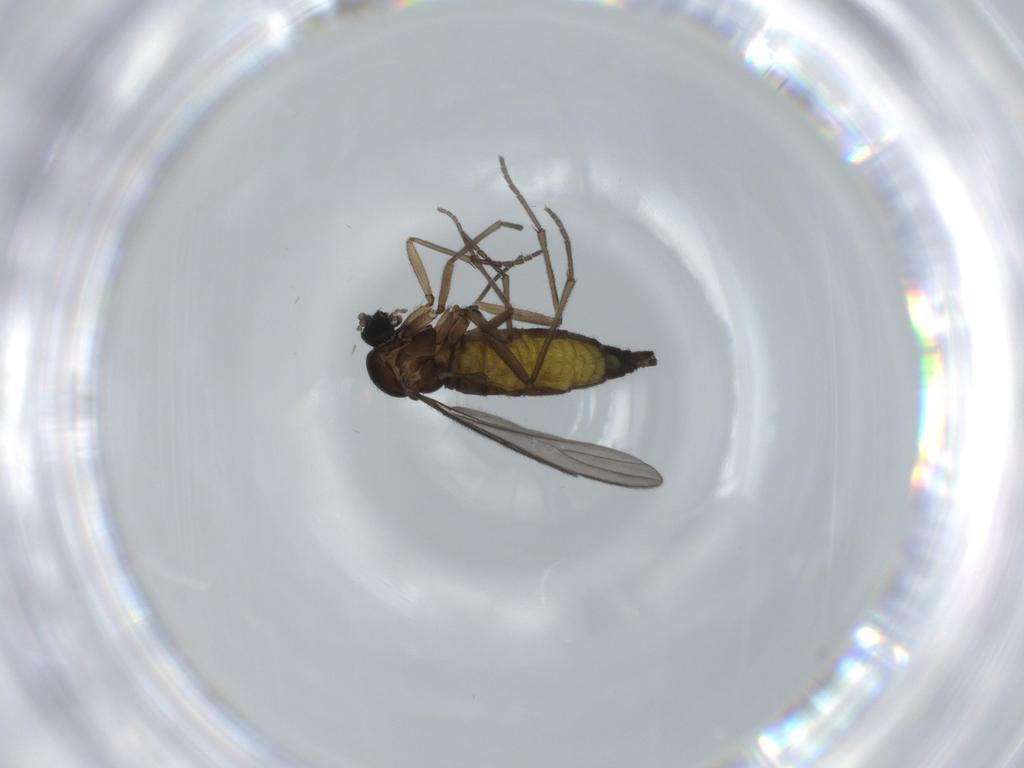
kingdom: Animalia
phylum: Arthropoda
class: Insecta
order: Diptera
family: Sciaridae
